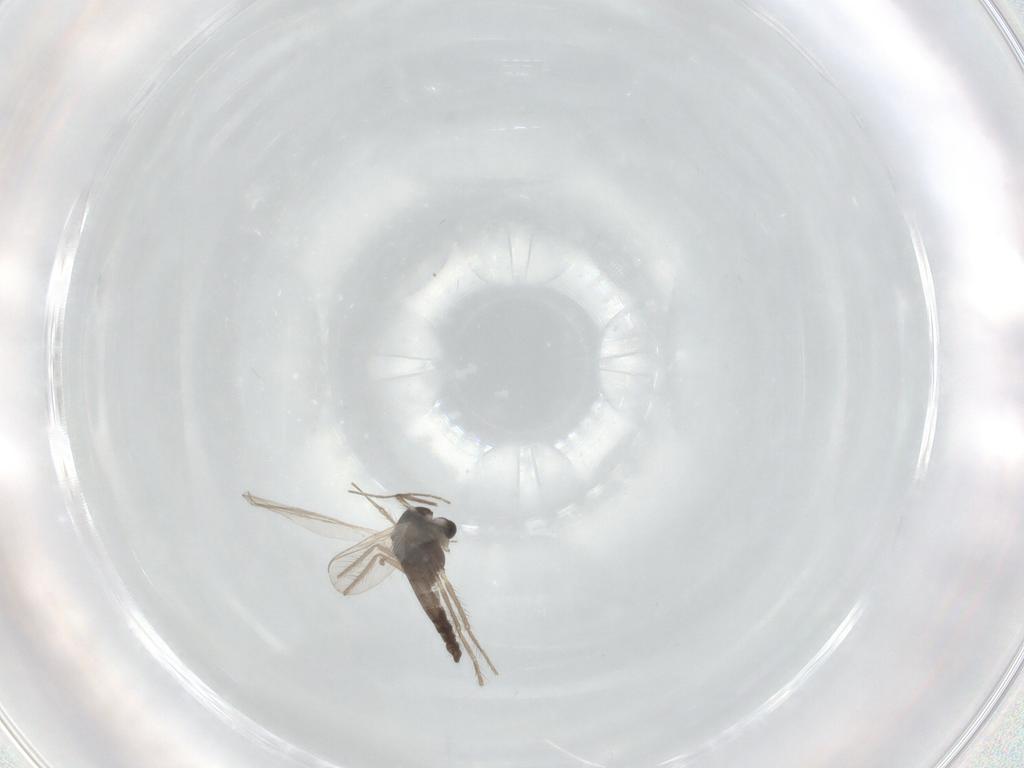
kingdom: Animalia
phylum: Arthropoda
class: Insecta
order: Diptera
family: Chironomidae
